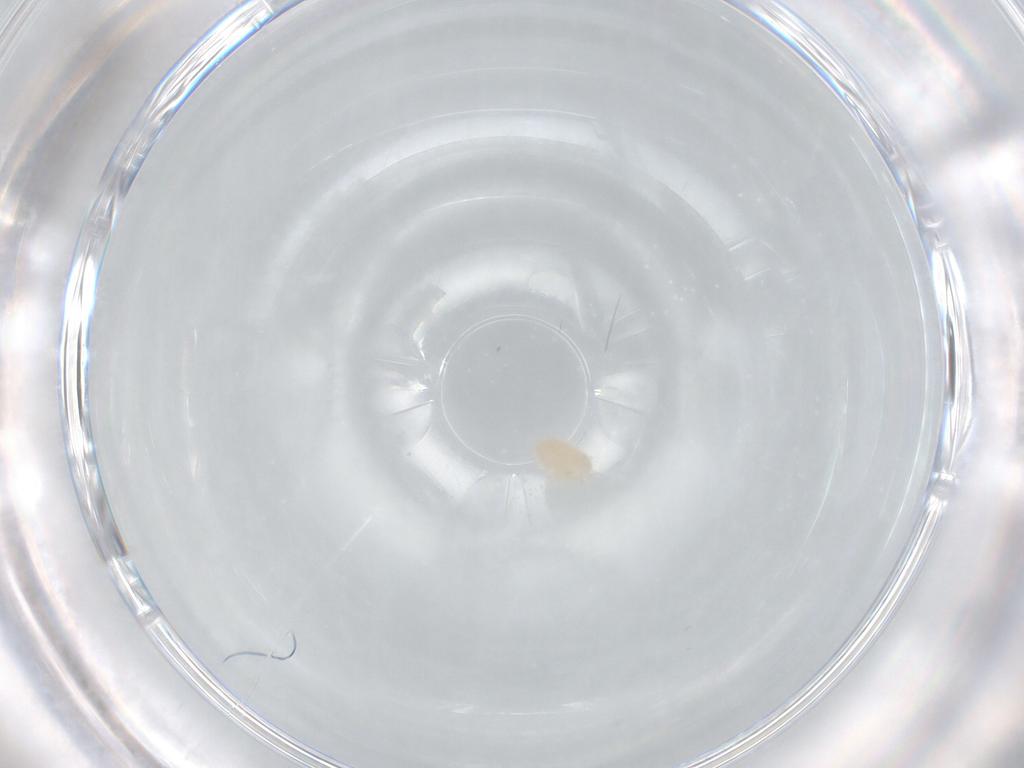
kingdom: Animalia
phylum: Arthropoda
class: Arachnida
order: Trombidiformes
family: Microtrombidiidae
